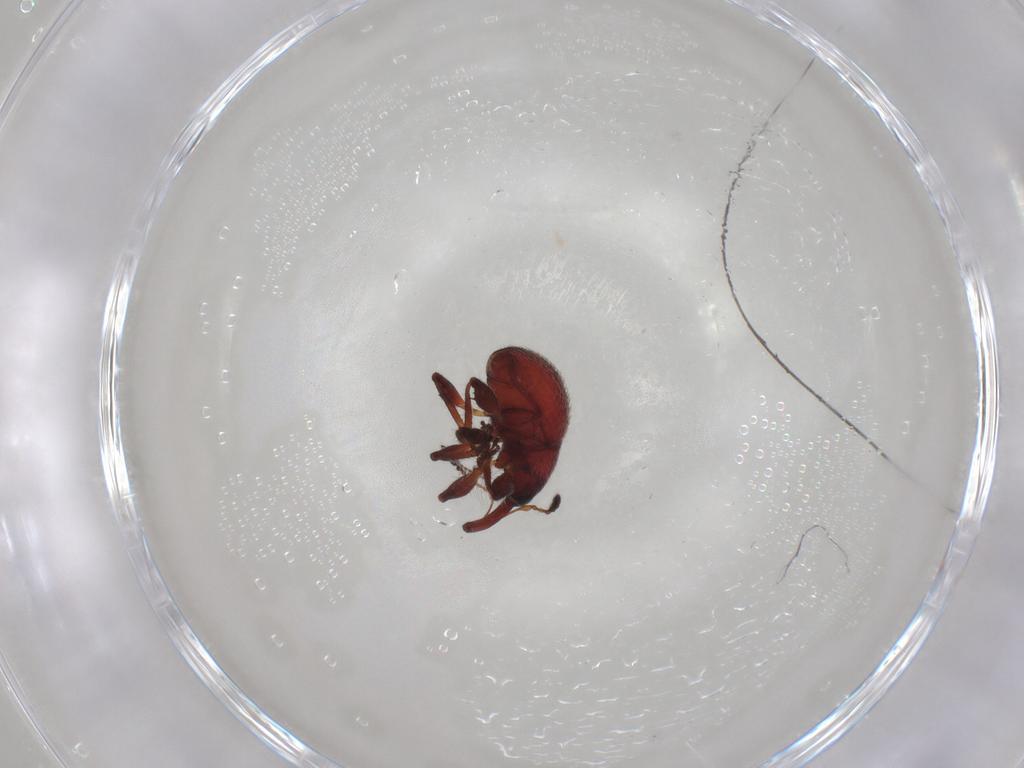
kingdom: Animalia
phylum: Arthropoda
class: Insecta
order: Coleoptera
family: Brentidae
